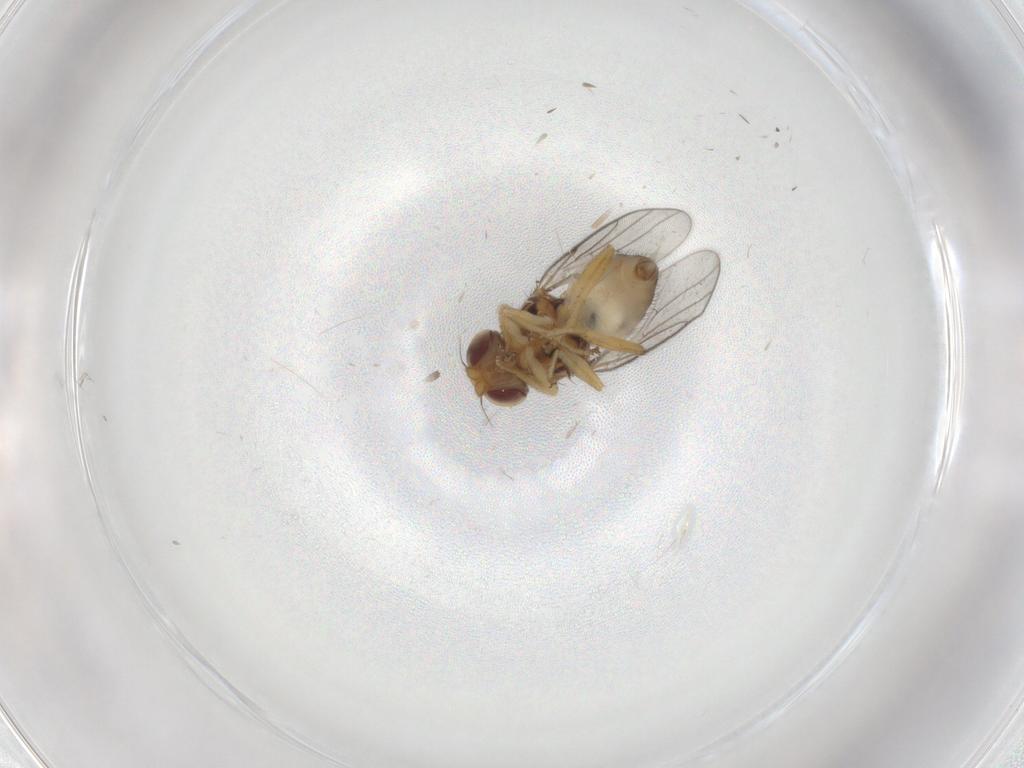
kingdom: Animalia
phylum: Arthropoda
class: Insecta
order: Diptera
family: Chloropidae
